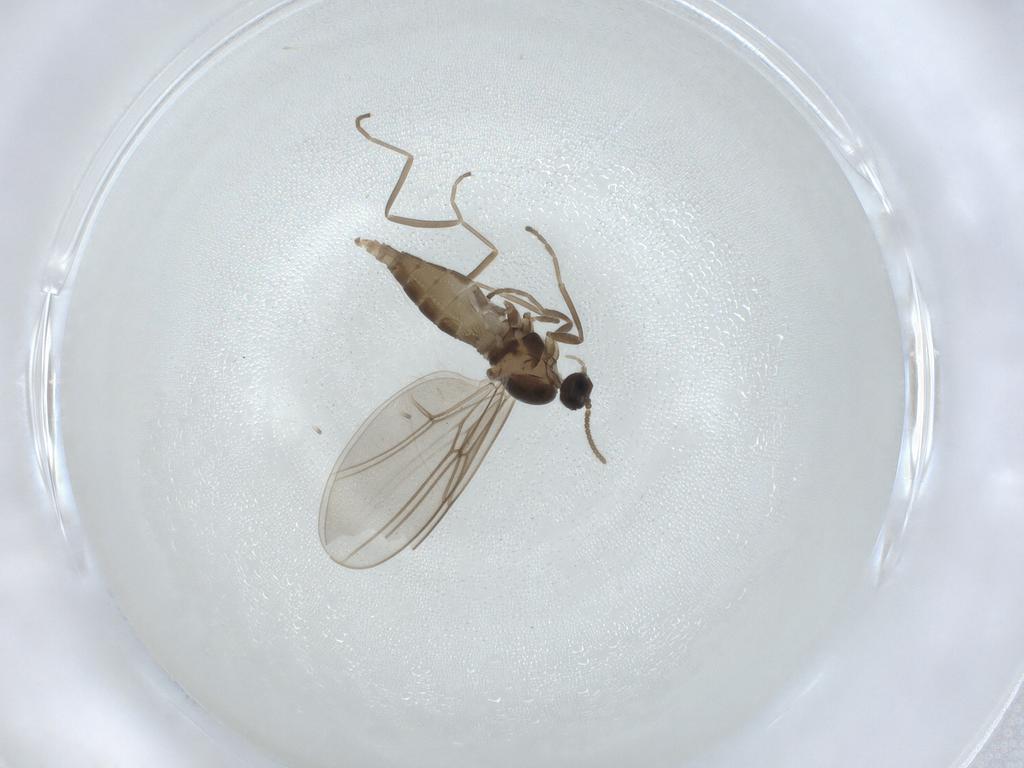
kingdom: Animalia
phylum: Arthropoda
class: Insecta
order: Diptera
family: Cecidomyiidae
